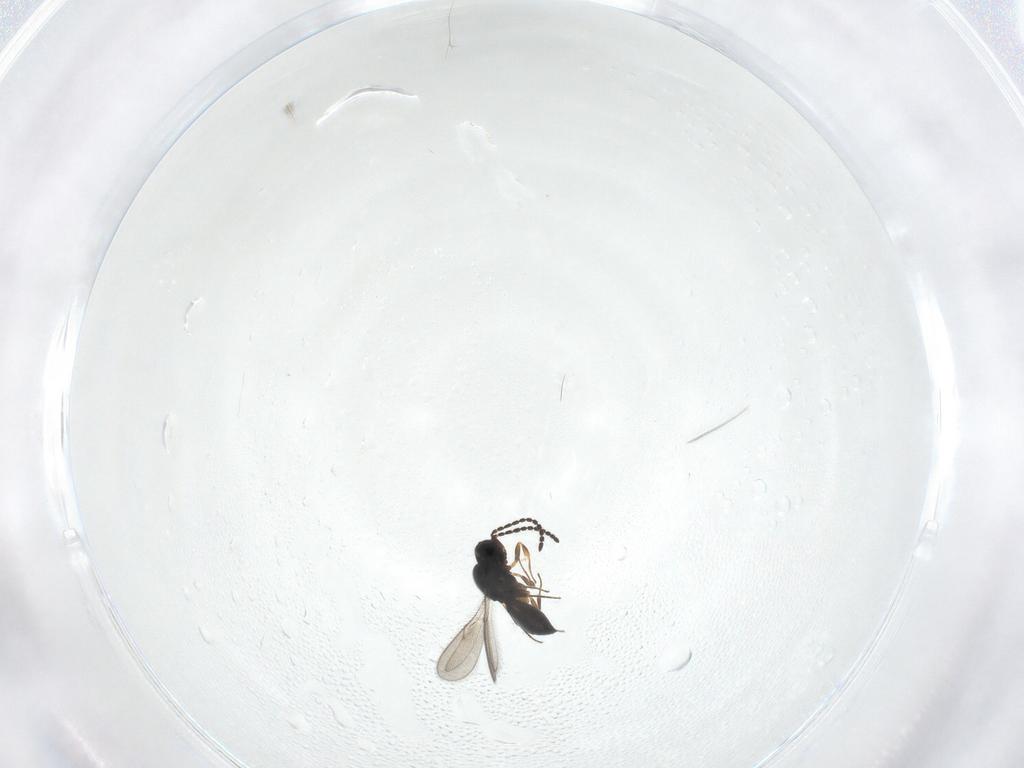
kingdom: Animalia
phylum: Arthropoda
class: Insecta
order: Hymenoptera
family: Scelionidae
